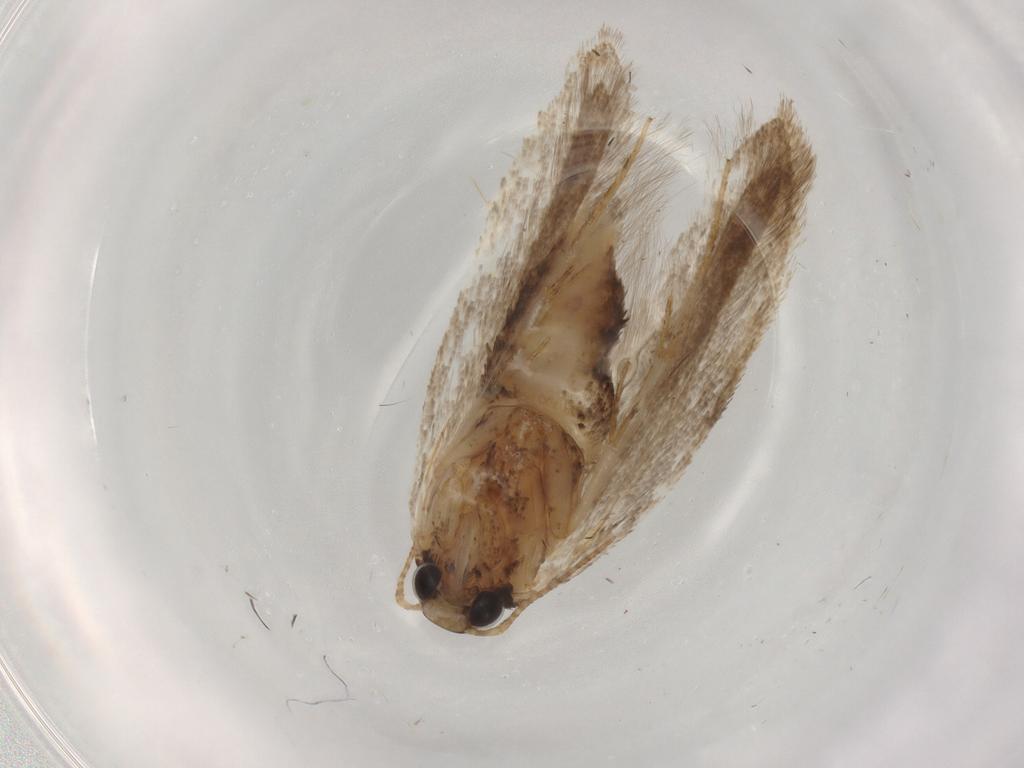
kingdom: Animalia
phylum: Arthropoda
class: Insecta
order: Lepidoptera
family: Gelechiidae
